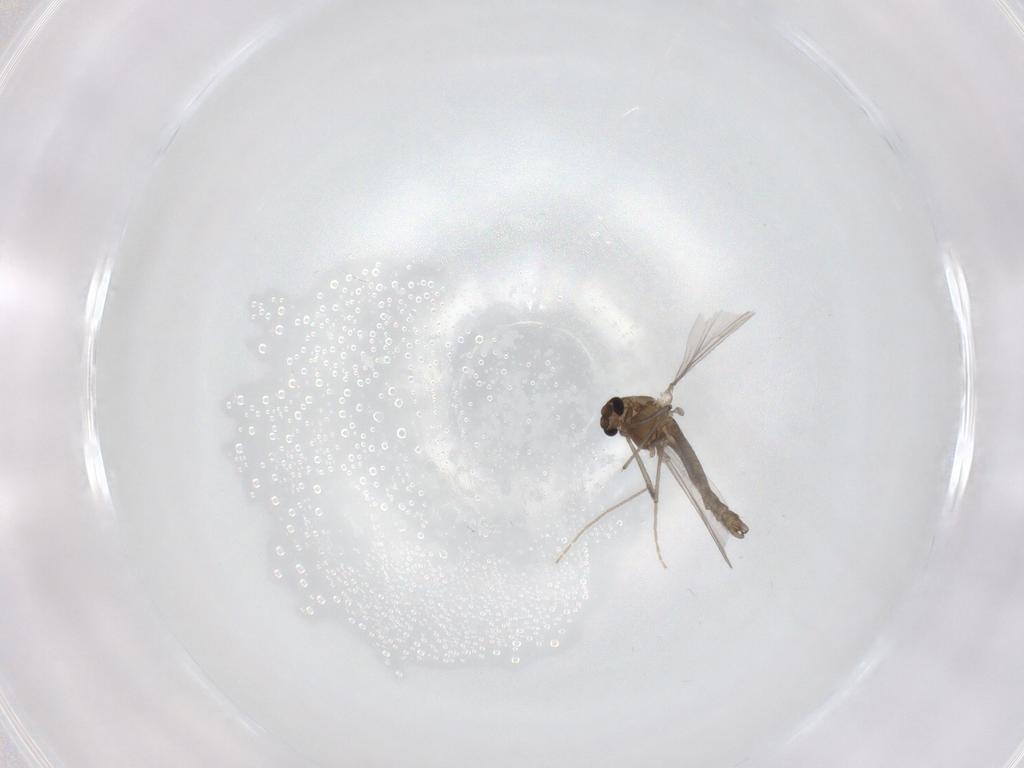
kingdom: Animalia
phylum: Arthropoda
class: Insecta
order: Diptera
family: Chironomidae
